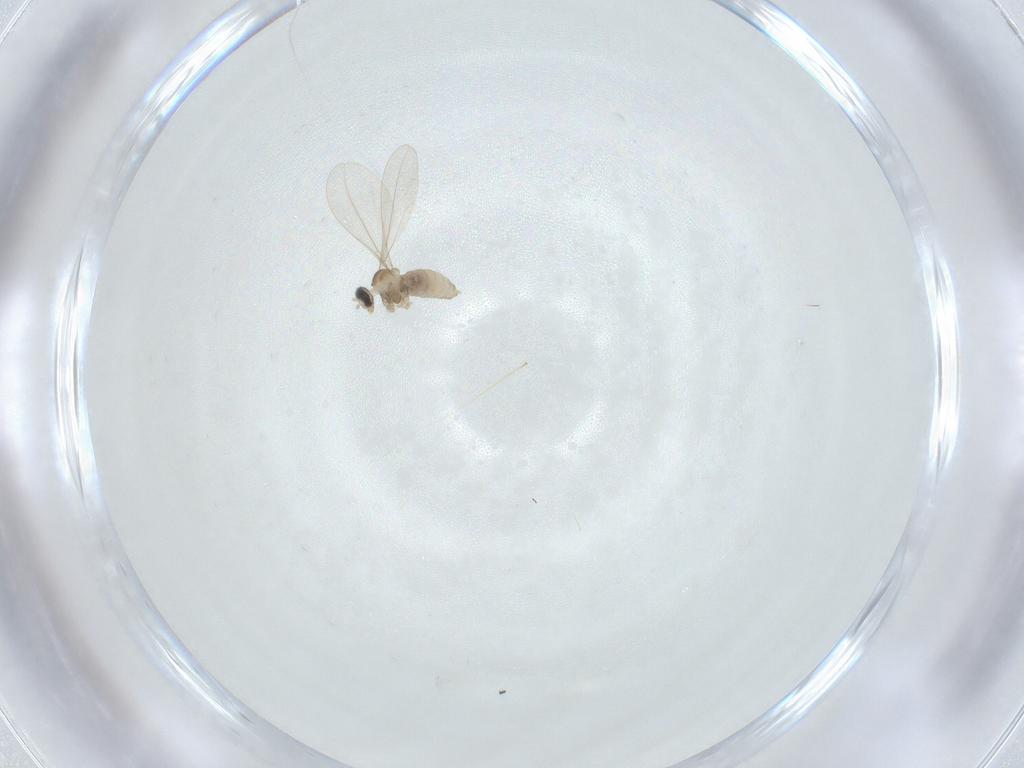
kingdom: Animalia
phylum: Arthropoda
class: Insecta
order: Diptera
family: Cecidomyiidae
